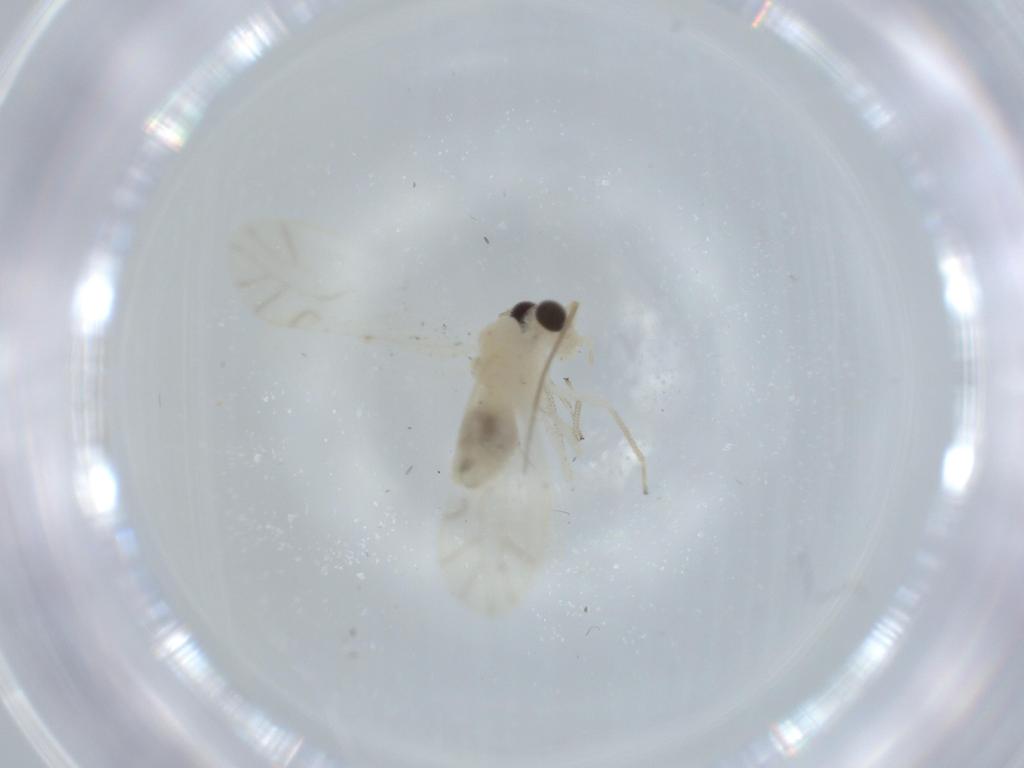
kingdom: Animalia
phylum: Arthropoda
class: Insecta
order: Psocodea
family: Caeciliusidae
